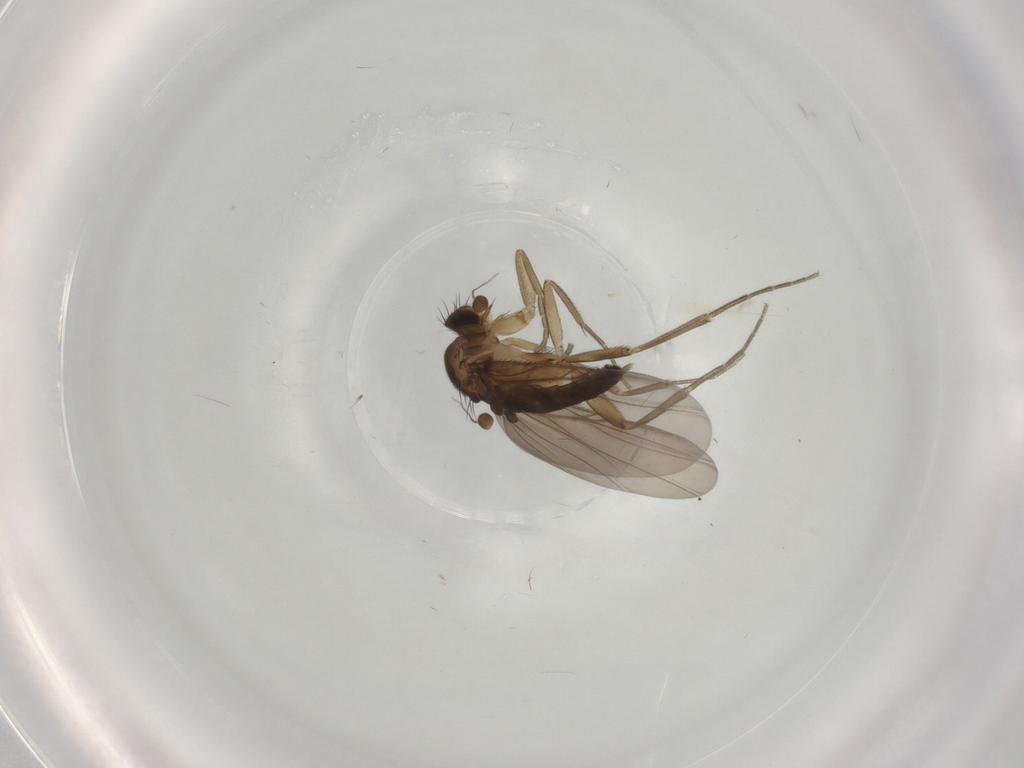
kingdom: Animalia
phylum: Arthropoda
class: Insecta
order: Diptera
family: Phoridae
